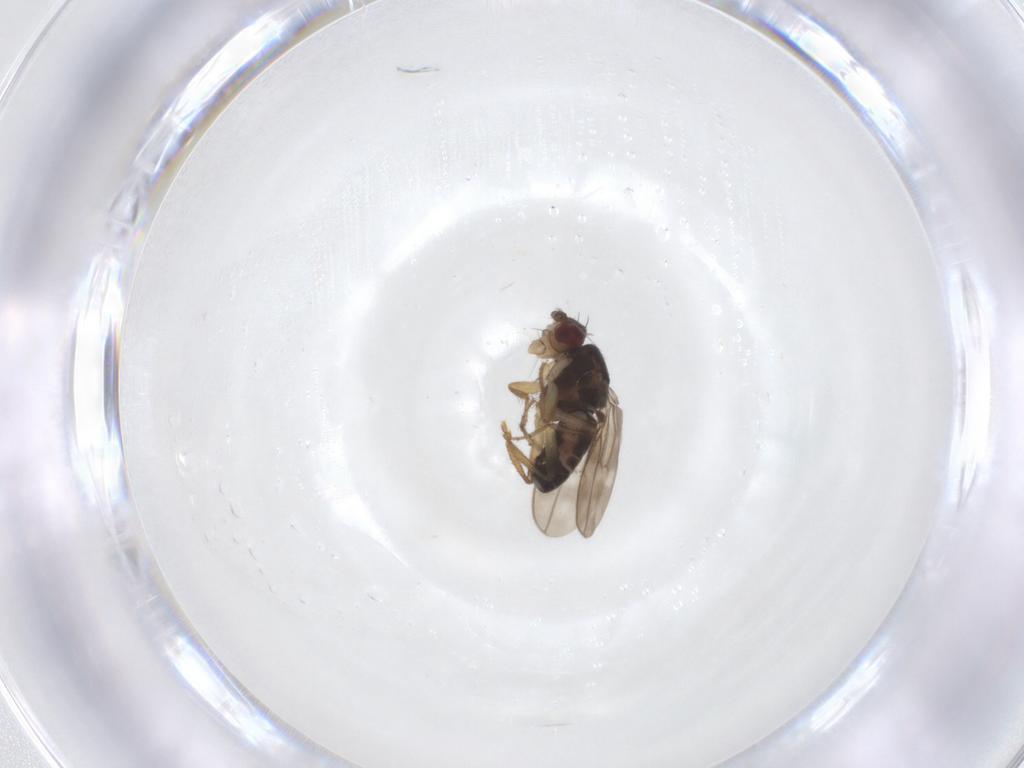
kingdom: Animalia
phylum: Arthropoda
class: Insecta
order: Diptera
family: Sphaeroceridae
